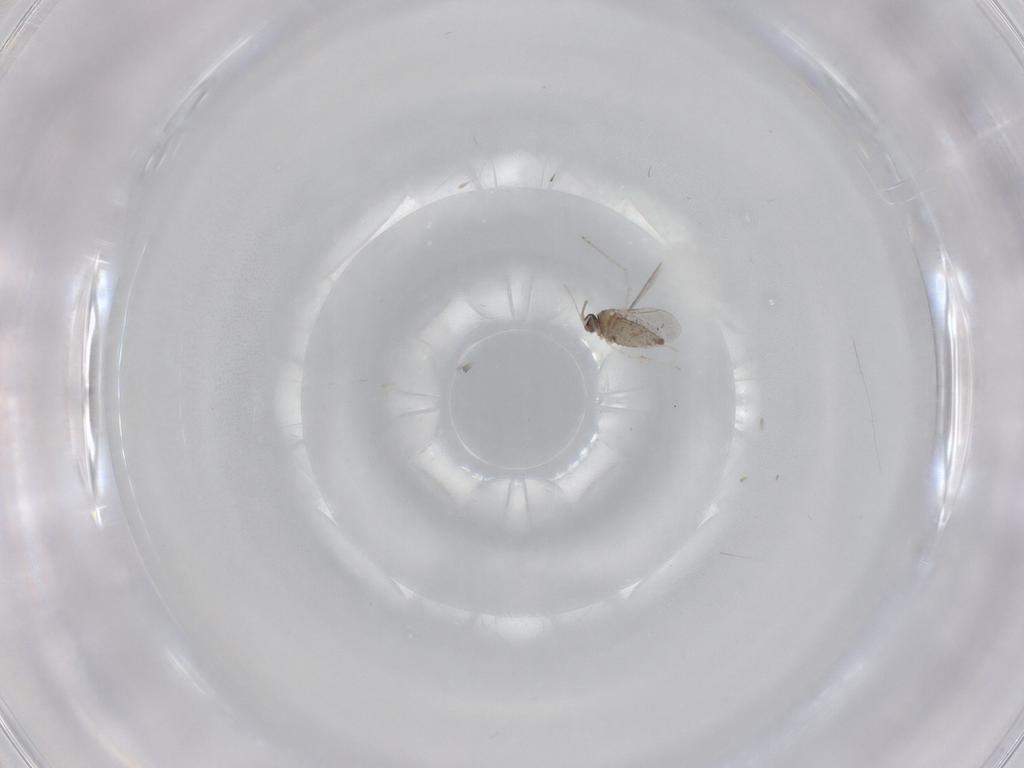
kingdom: Animalia
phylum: Arthropoda
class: Insecta
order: Diptera
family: Cecidomyiidae
